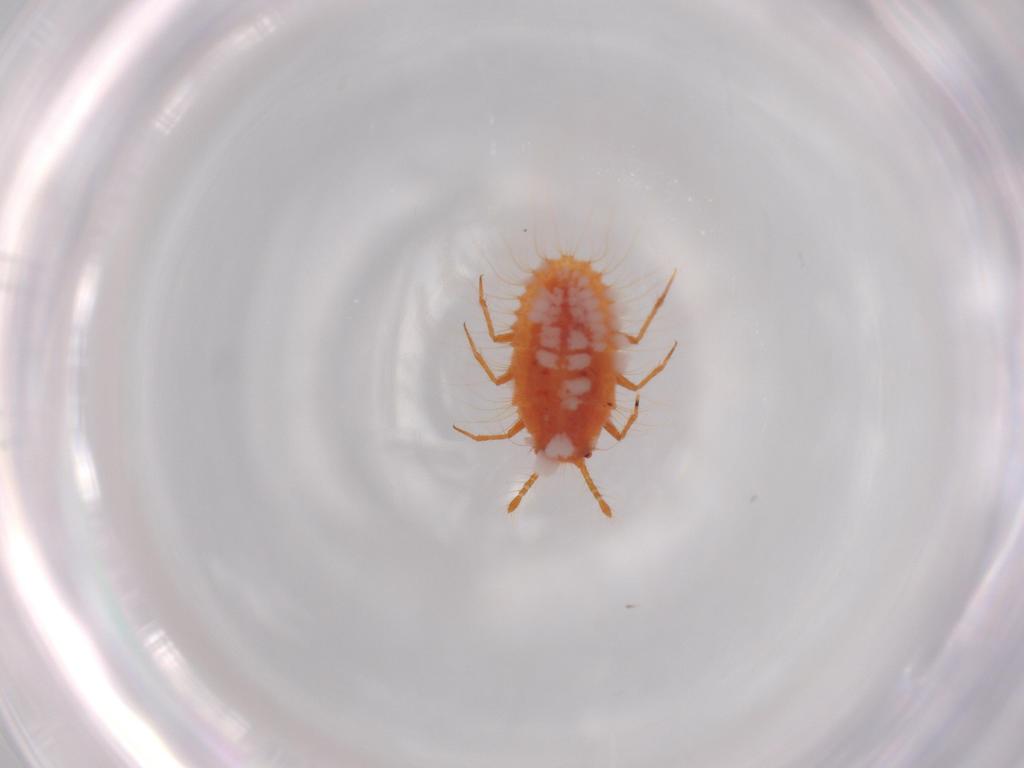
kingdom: Animalia
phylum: Arthropoda
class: Insecta
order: Hemiptera
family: Coccoidea_incertae_sedis
